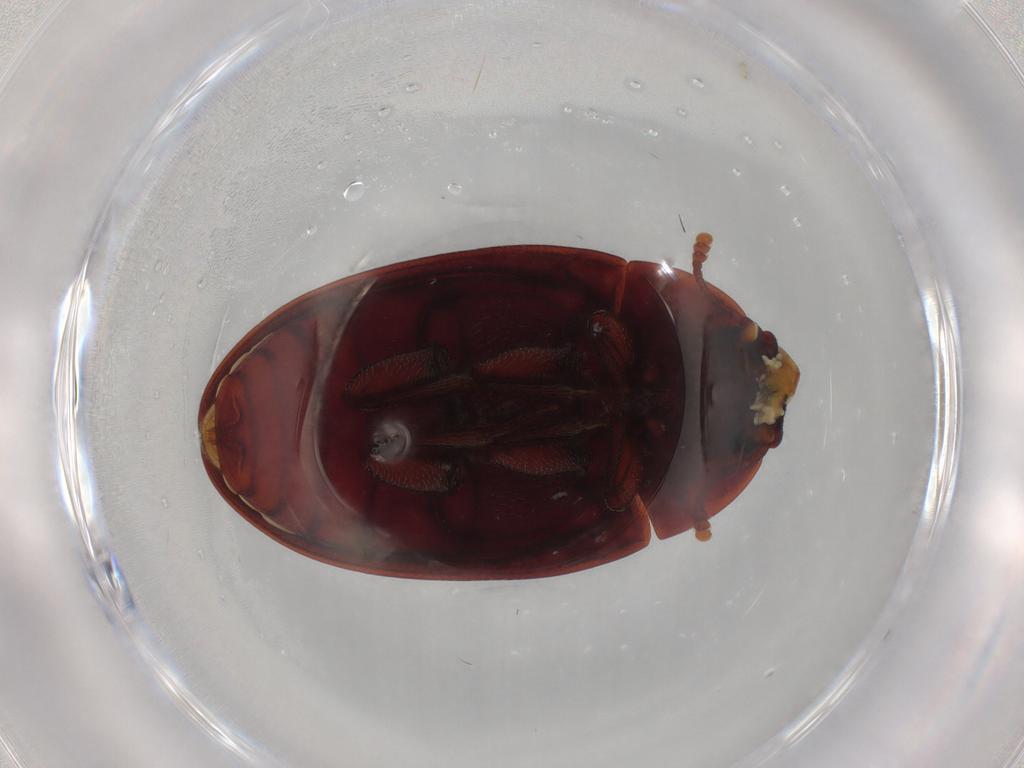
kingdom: Animalia
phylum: Arthropoda
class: Insecta
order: Coleoptera
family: Zopheridae
